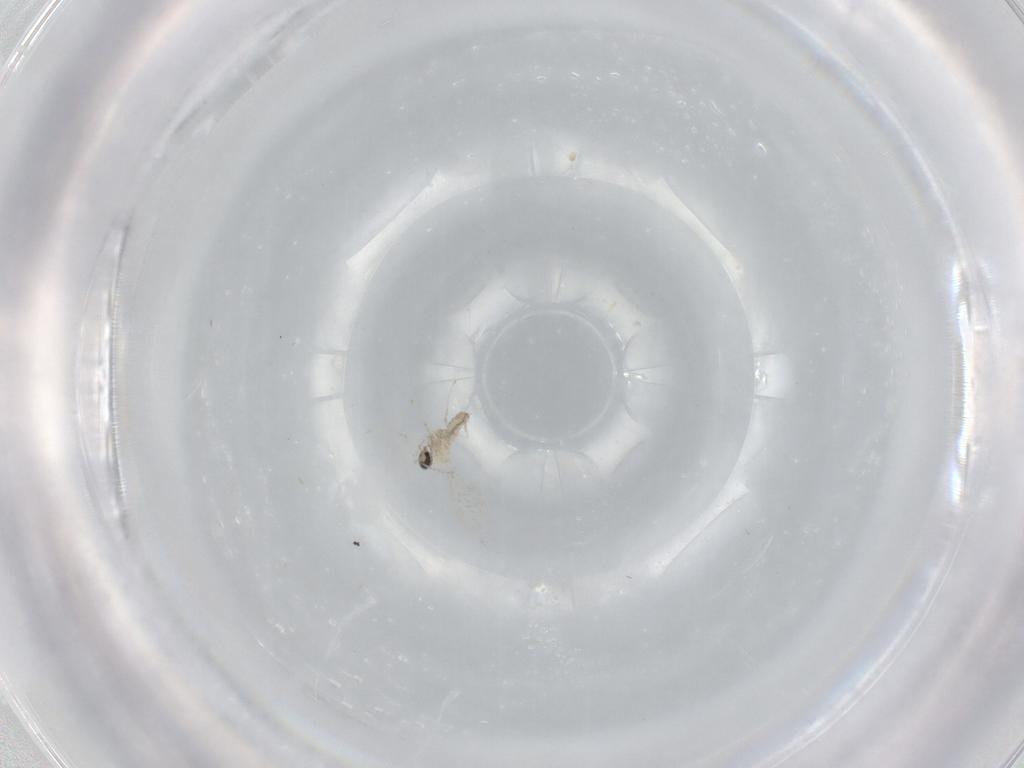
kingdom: Animalia
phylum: Arthropoda
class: Insecta
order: Diptera
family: Cecidomyiidae
